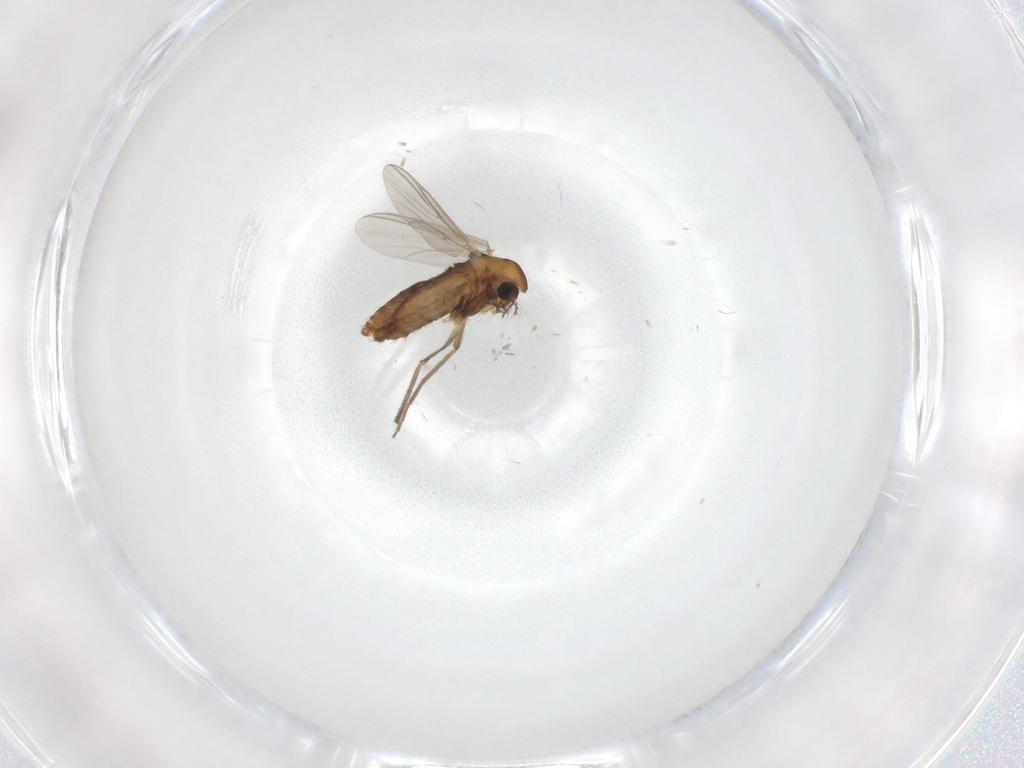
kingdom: Animalia
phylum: Arthropoda
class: Insecta
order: Diptera
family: Chironomidae
